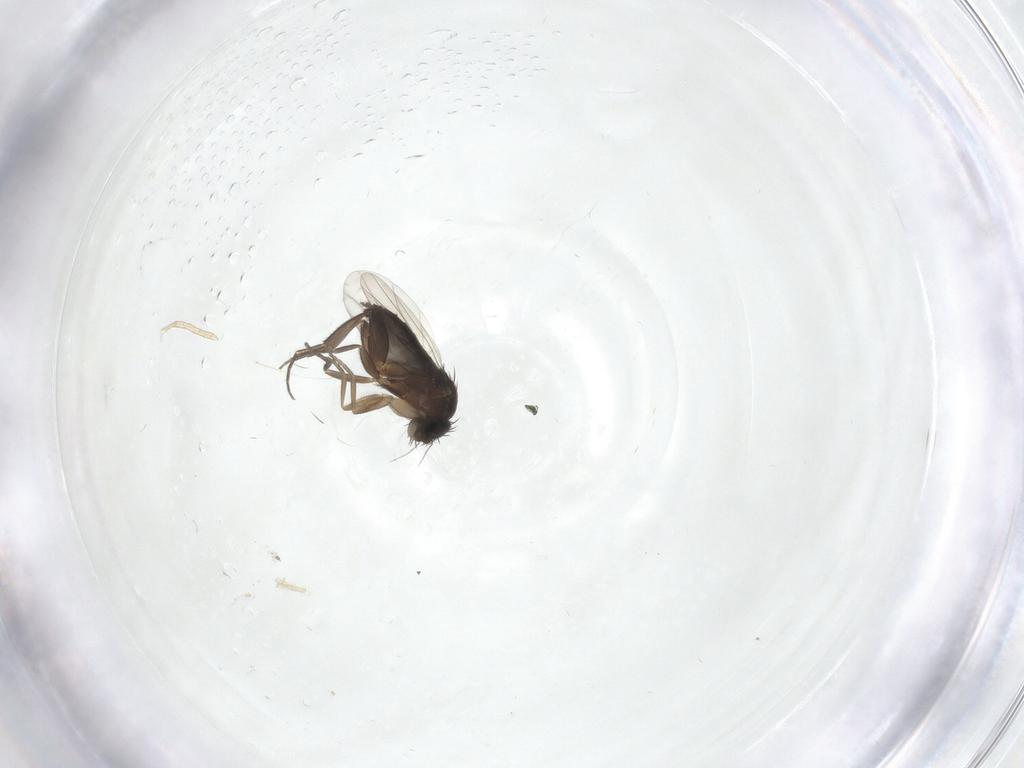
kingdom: Animalia
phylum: Arthropoda
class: Insecta
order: Diptera
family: Phoridae
